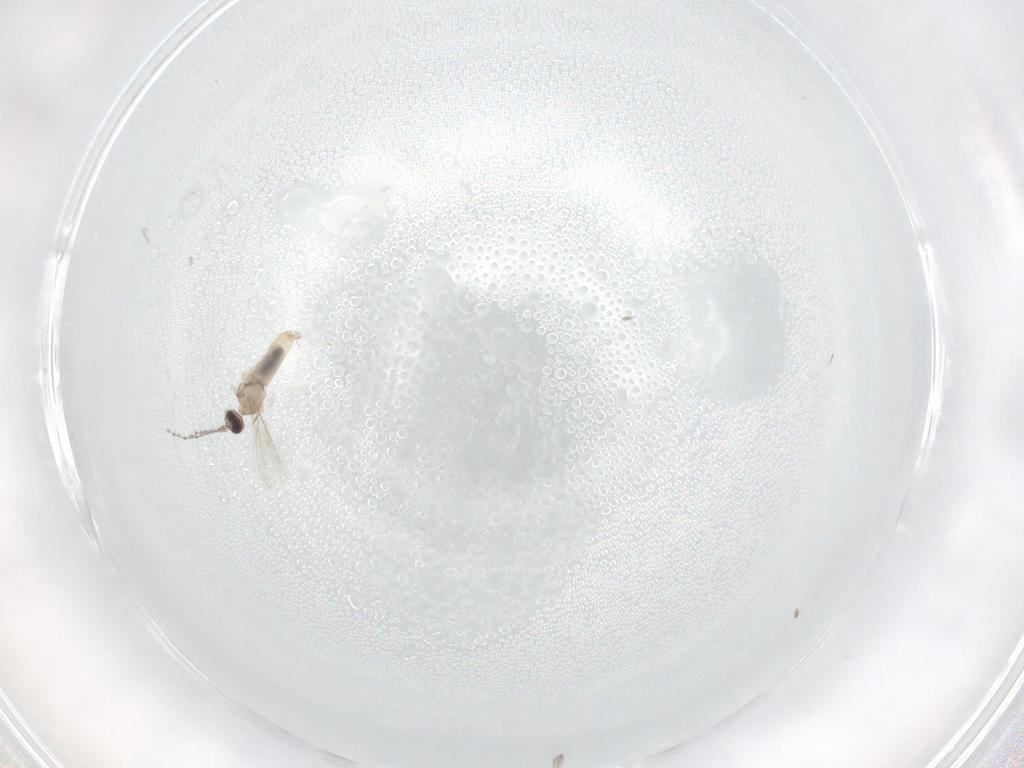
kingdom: Animalia
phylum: Arthropoda
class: Insecta
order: Diptera
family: Cecidomyiidae
